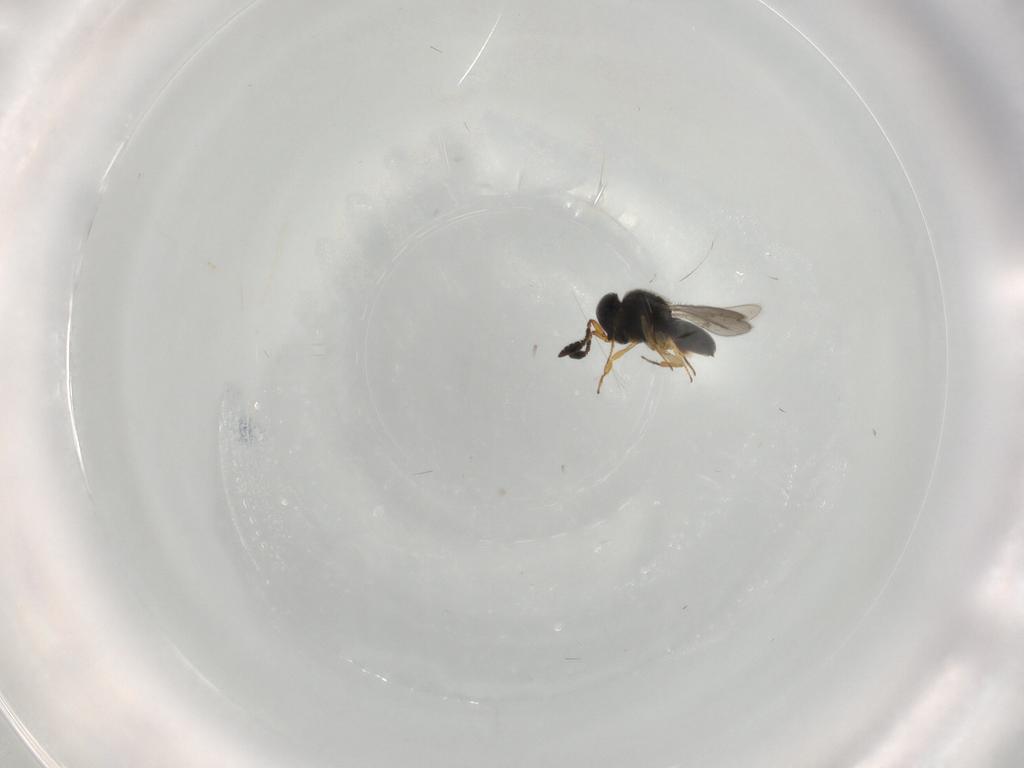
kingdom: Animalia
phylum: Arthropoda
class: Insecta
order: Hymenoptera
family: Scelionidae
